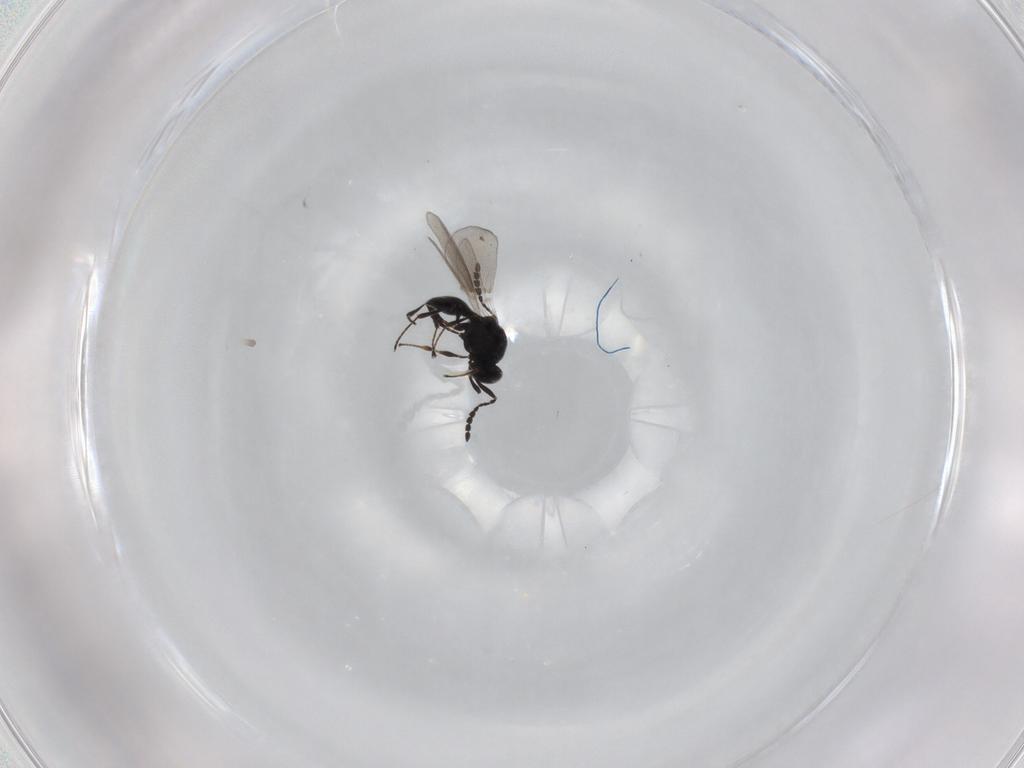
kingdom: Animalia
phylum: Arthropoda
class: Insecta
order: Hymenoptera
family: Platygastridae
